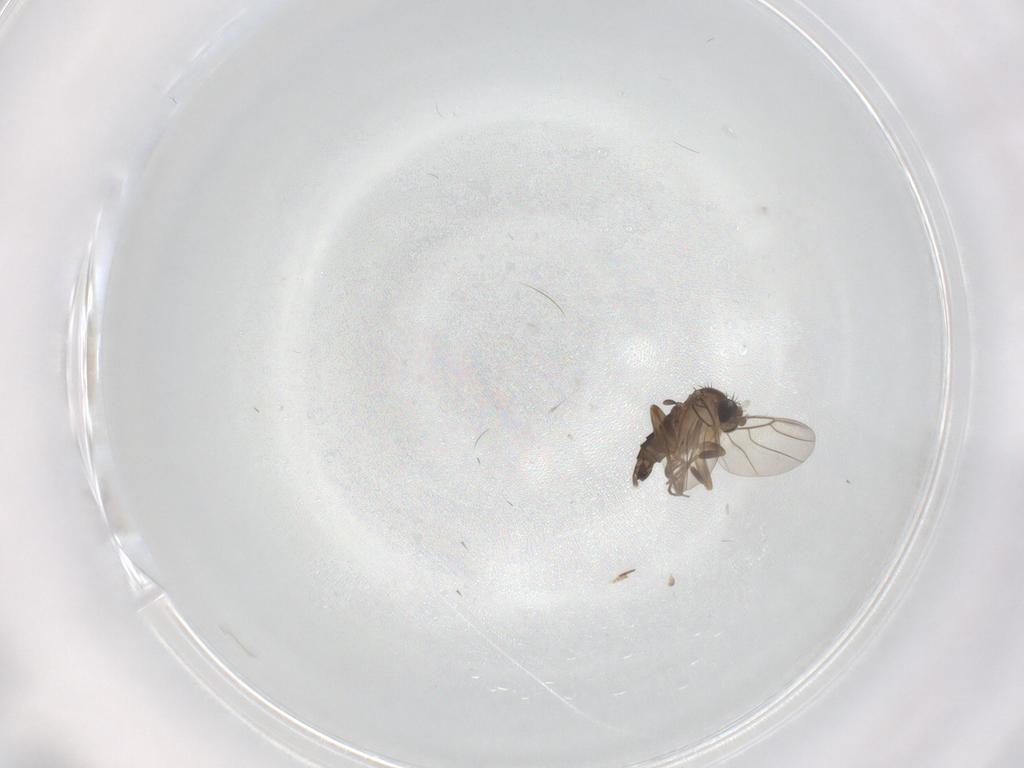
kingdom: Animalia
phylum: Arthropoda
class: Insecta
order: Diptera
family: Phoridae
